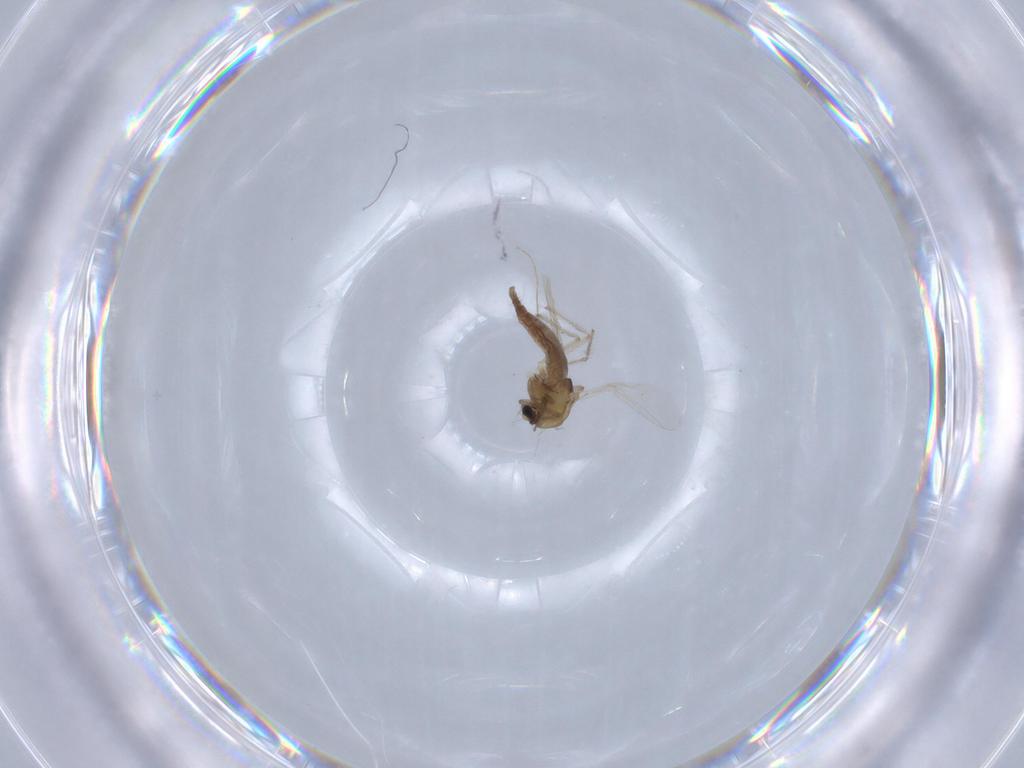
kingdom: Animalia
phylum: Arthropoda
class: Insecta
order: Diptera
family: Chironomidae
